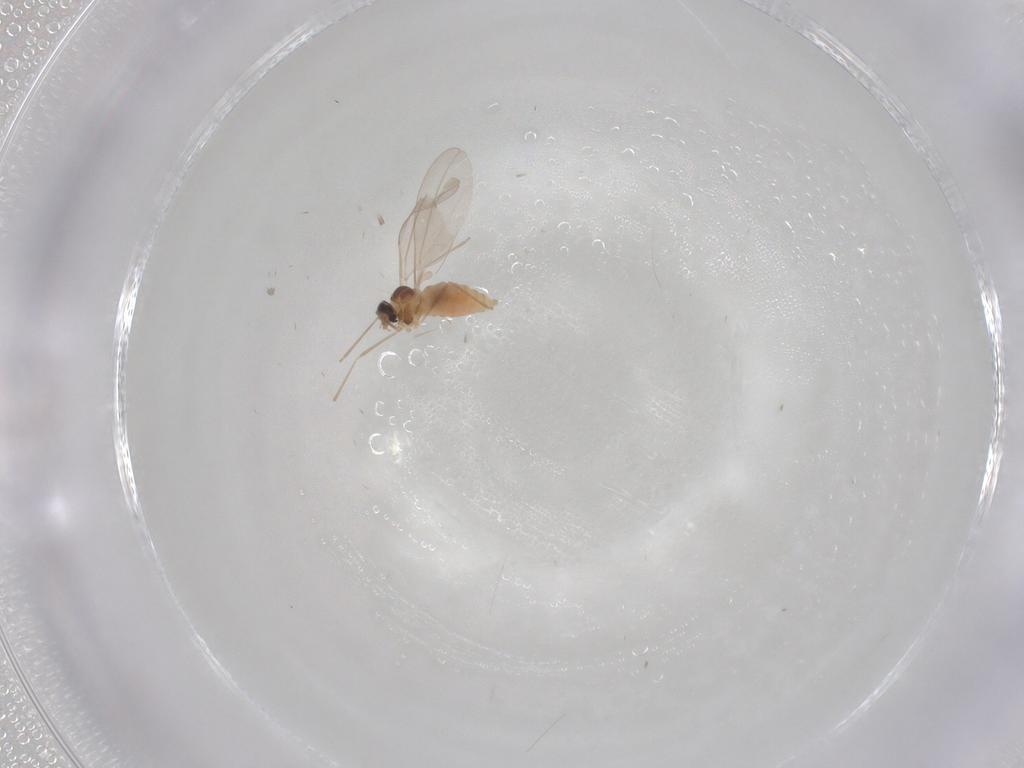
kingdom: Animalia
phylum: Arthropoda
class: Insecta
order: Diptera
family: Cecidomyiidae
